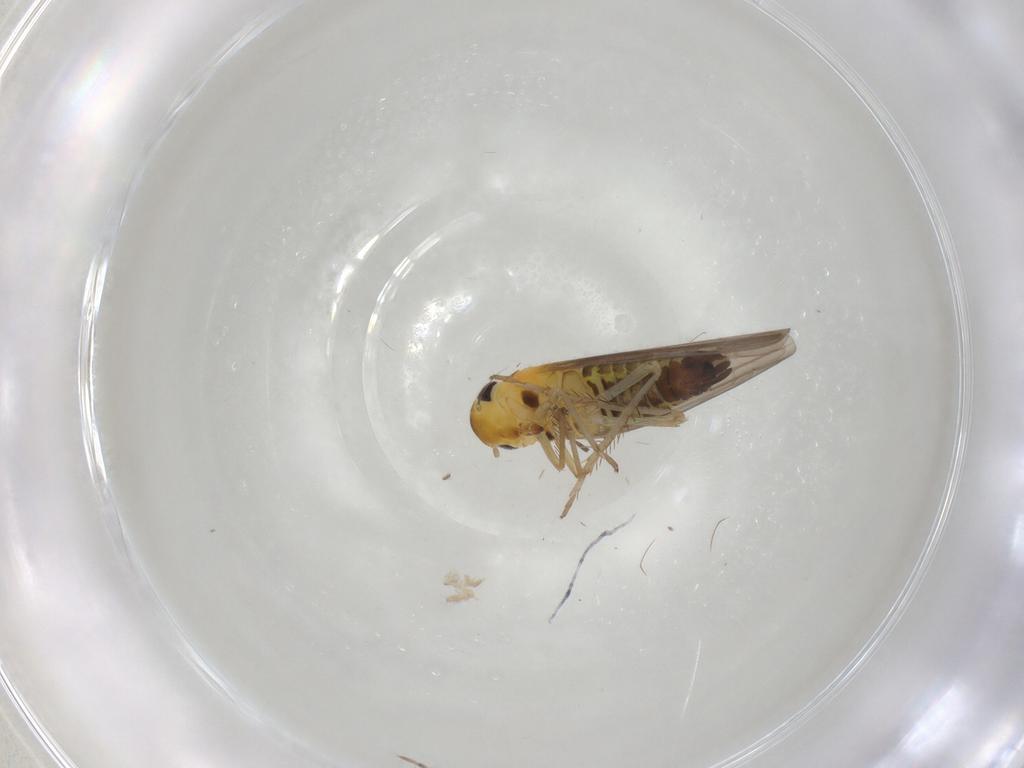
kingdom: Animalia
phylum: Arthropoda
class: Insecta
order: Hemiptera
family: Cicadellidae
